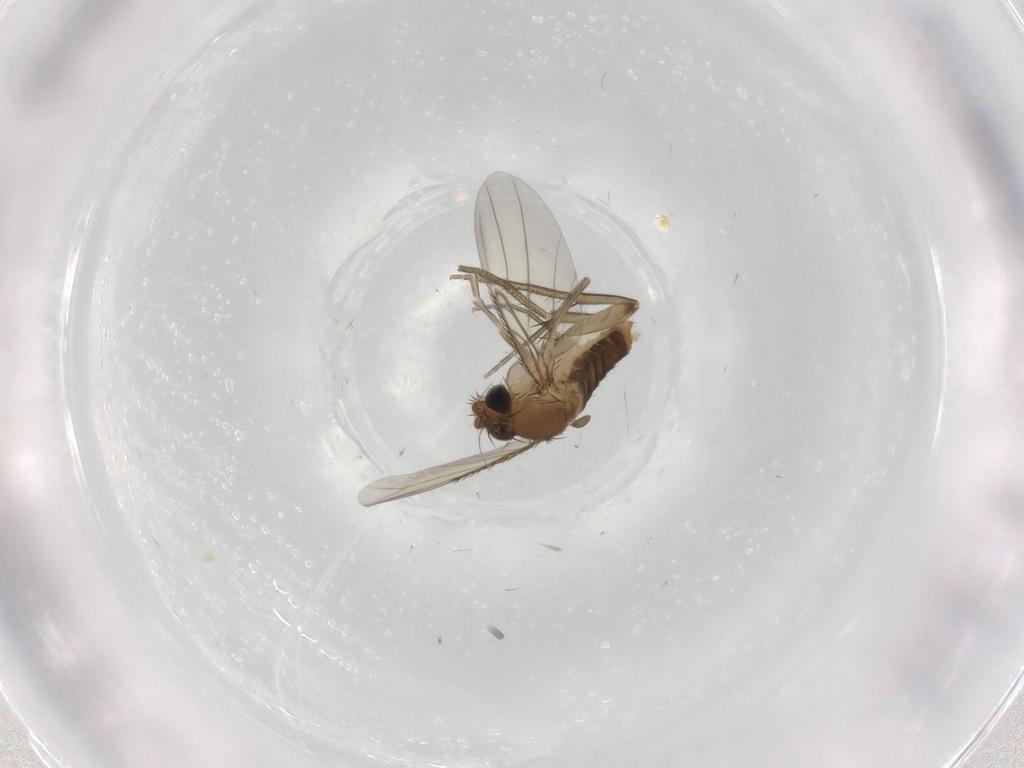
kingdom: Animalia
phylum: Arthropoda
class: Insecta
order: Diptera
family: Phoridae
